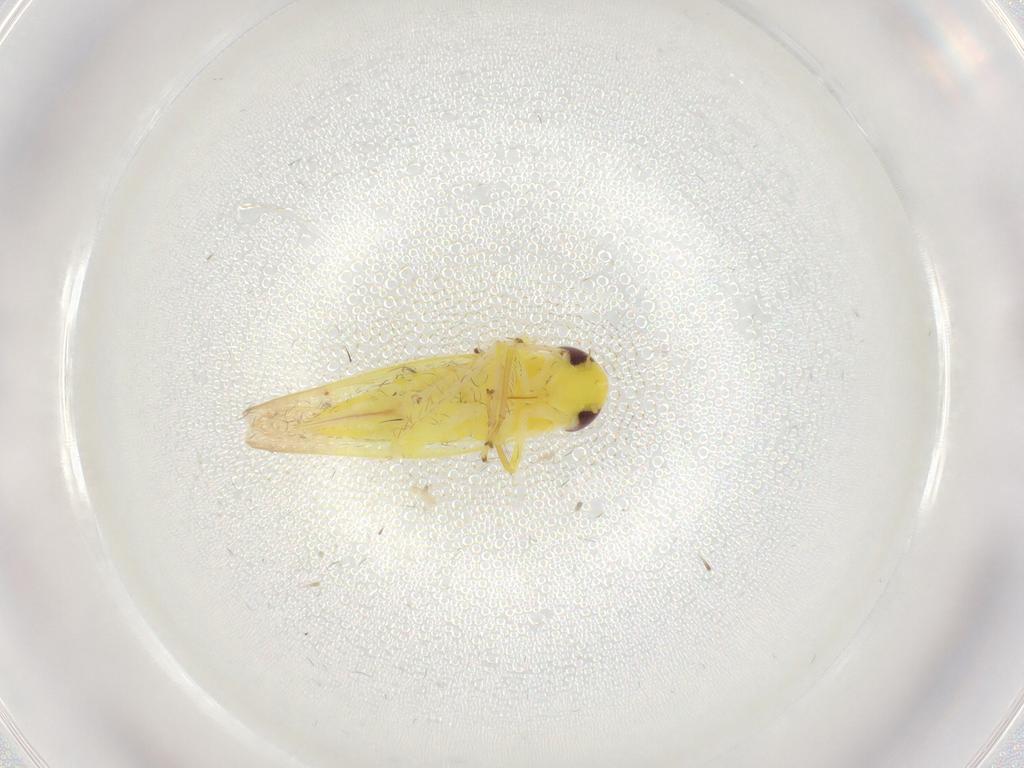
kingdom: Animalia
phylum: Arthropoda
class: Insecta
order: Hemiptera
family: Cicadellidae
